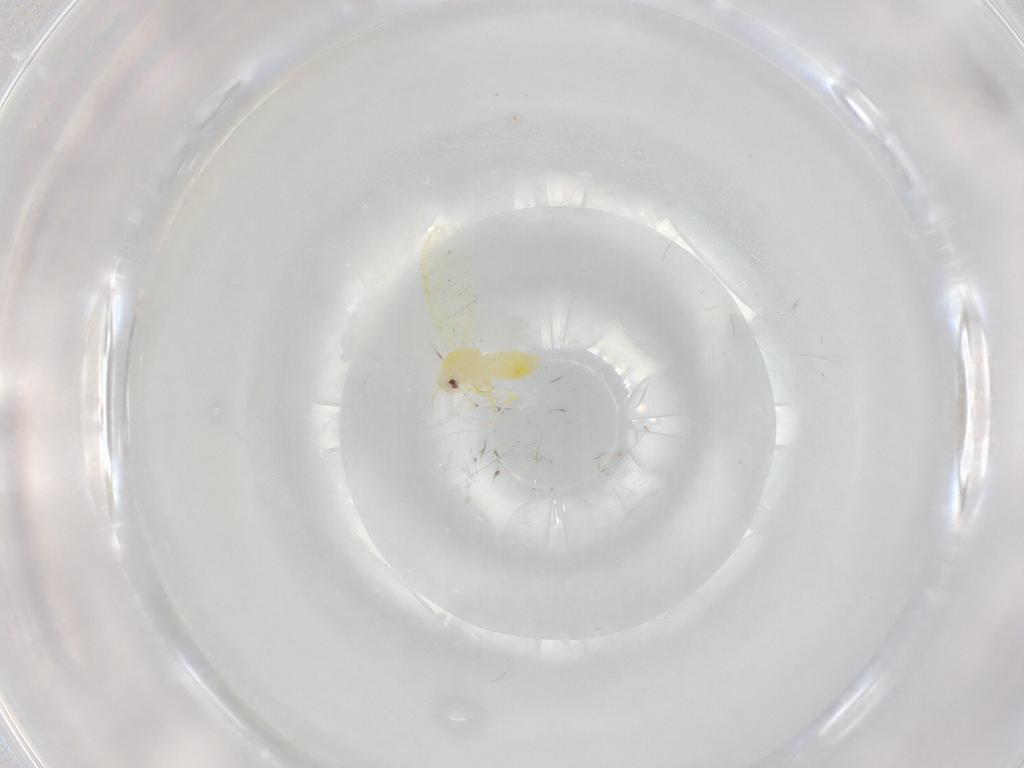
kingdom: Animalia
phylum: Arthropoda
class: Insecta
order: Hemiptera
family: Aleyrodidae
